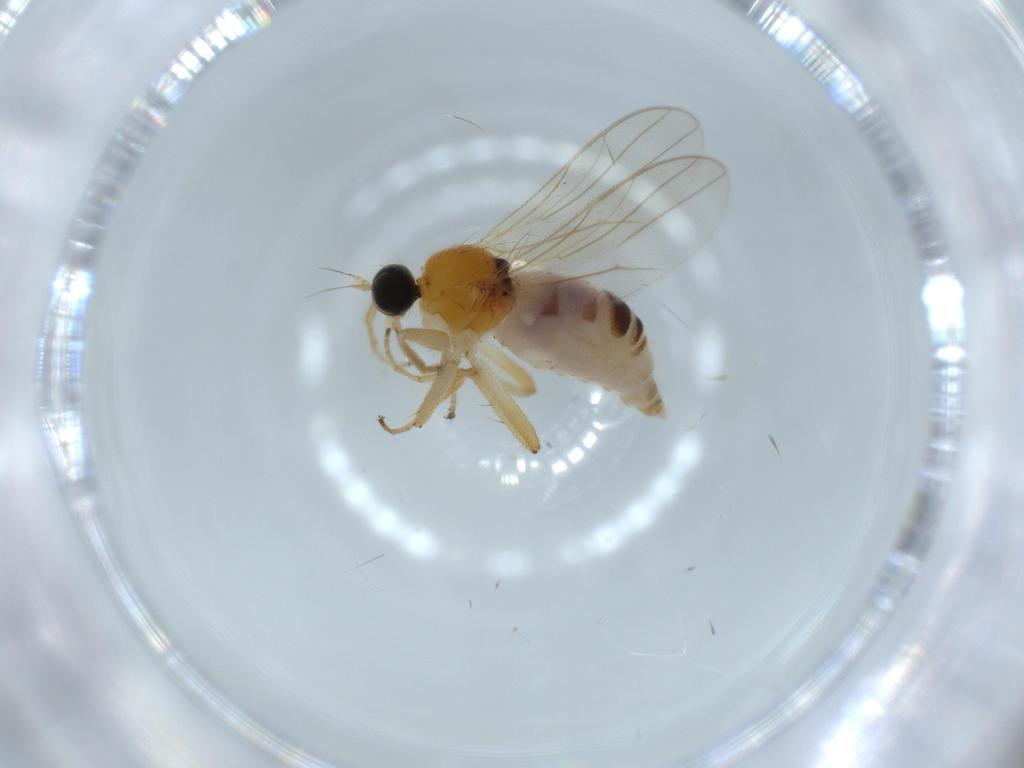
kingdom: Animalia
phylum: Arthropoda
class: Insecta
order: Diptera
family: Hybotidae
